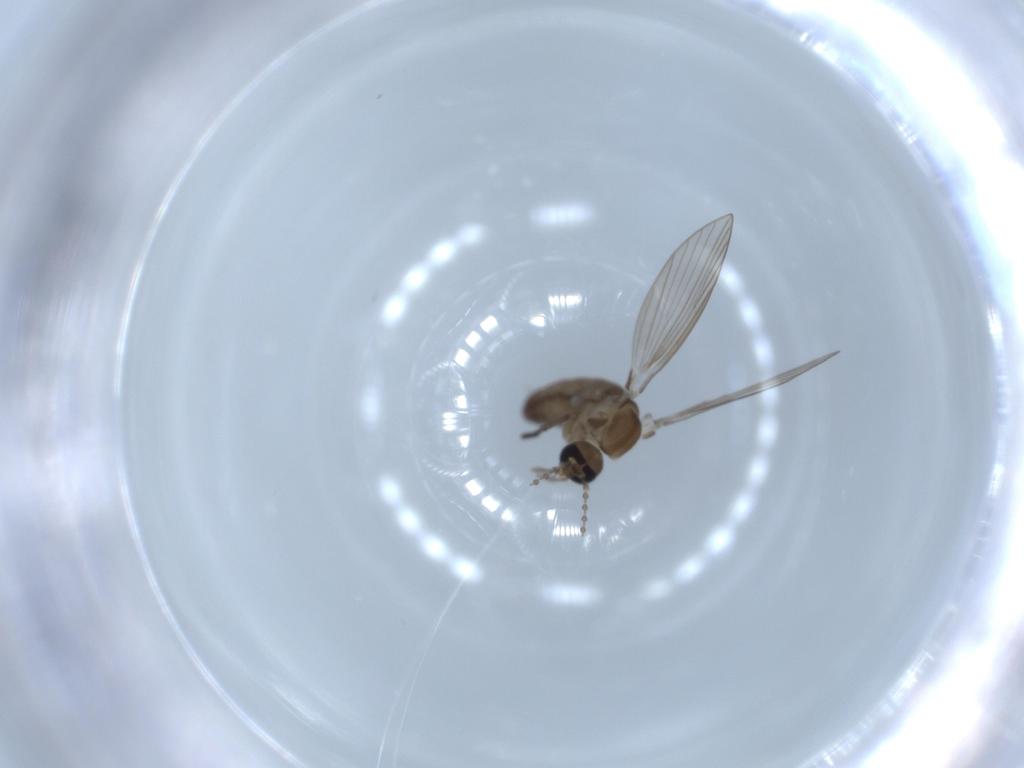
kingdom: Animalia
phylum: Arthropoda
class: Insecta
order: Diptera
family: Psychodidae
